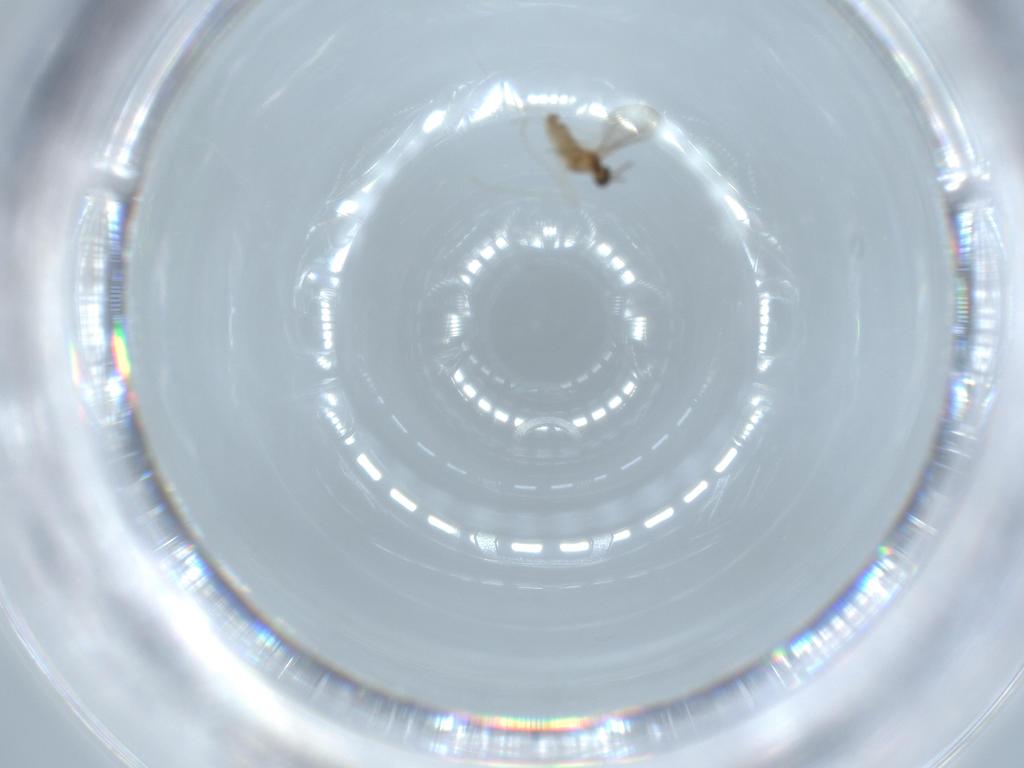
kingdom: Animalia
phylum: Arthropoda
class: Insecta
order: Diptera
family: Cecidomyiidae
